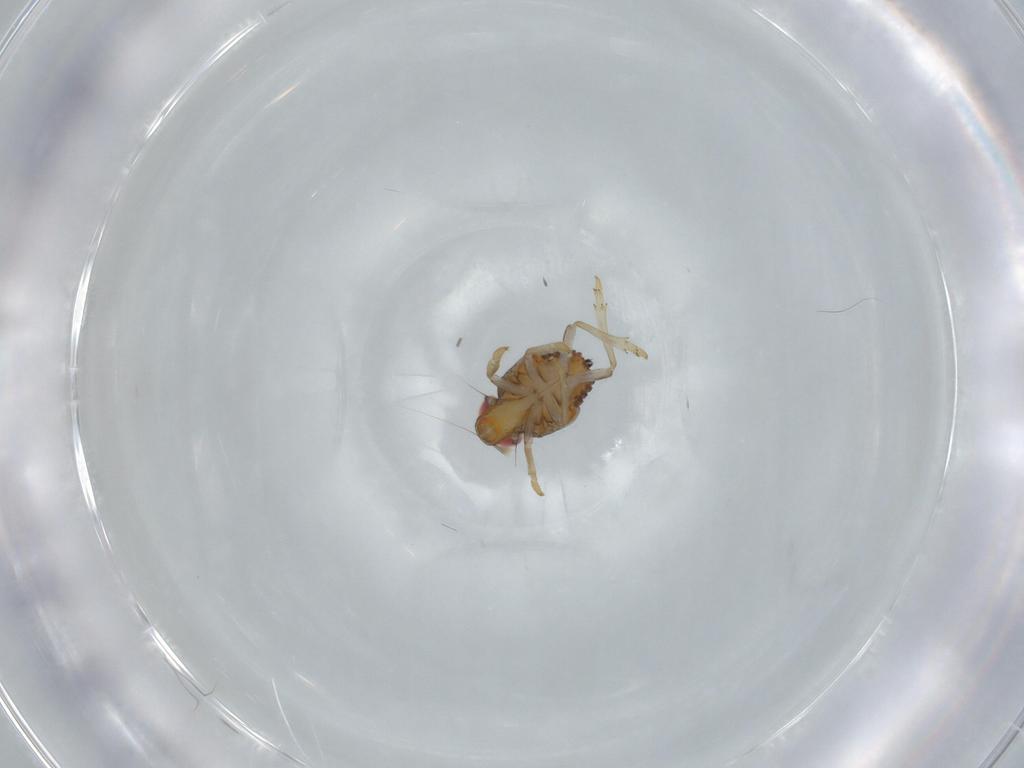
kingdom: Animalia
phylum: Arthropoda
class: Insecta
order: Hemiptera
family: Issidae
